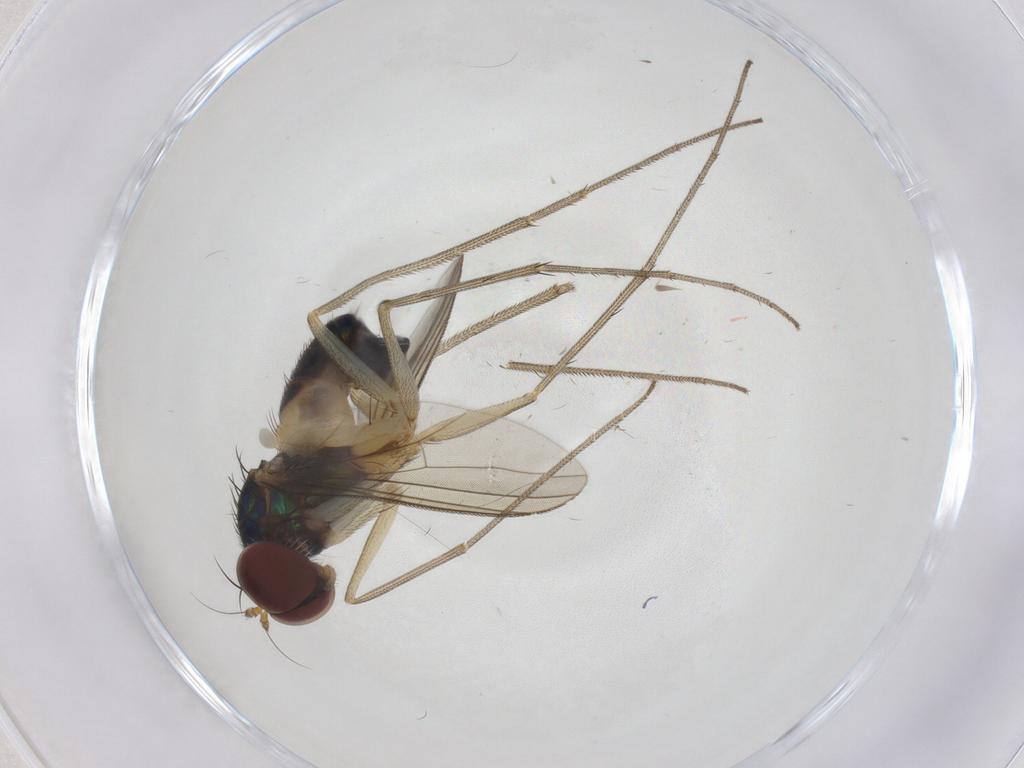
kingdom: Animalia
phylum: Arthropoda
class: Insecta
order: Diptera
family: Dolichopodidae
